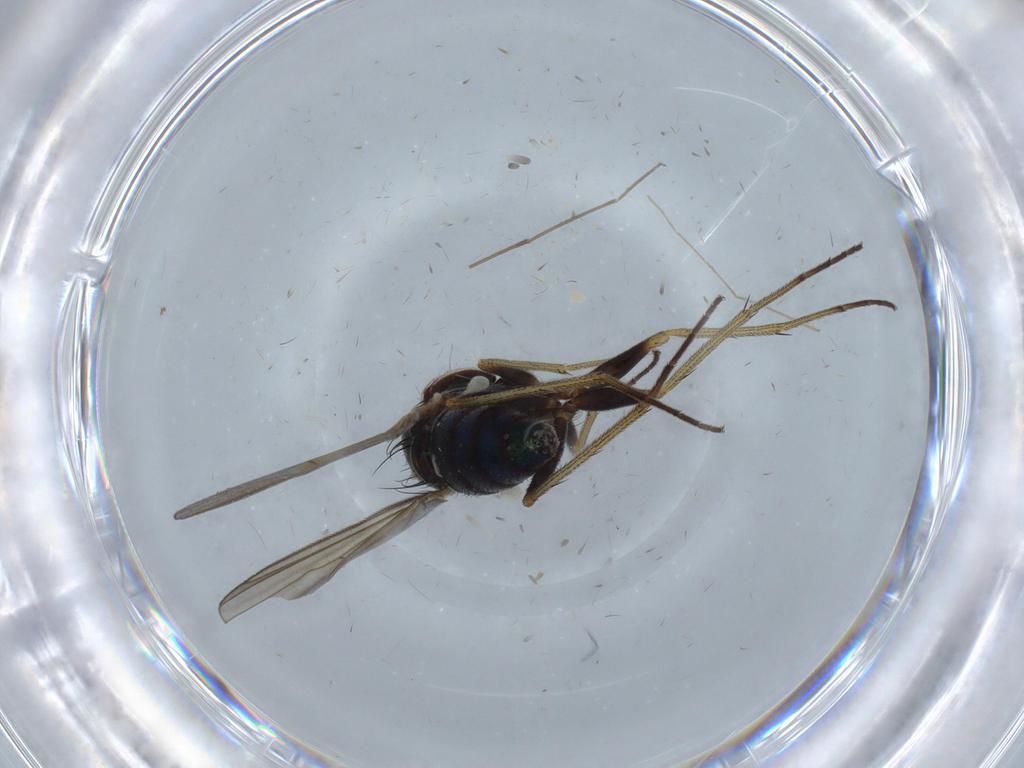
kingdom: Animalia
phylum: Arthropoda
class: Insecta
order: Diptera
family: Dolichopodidae
